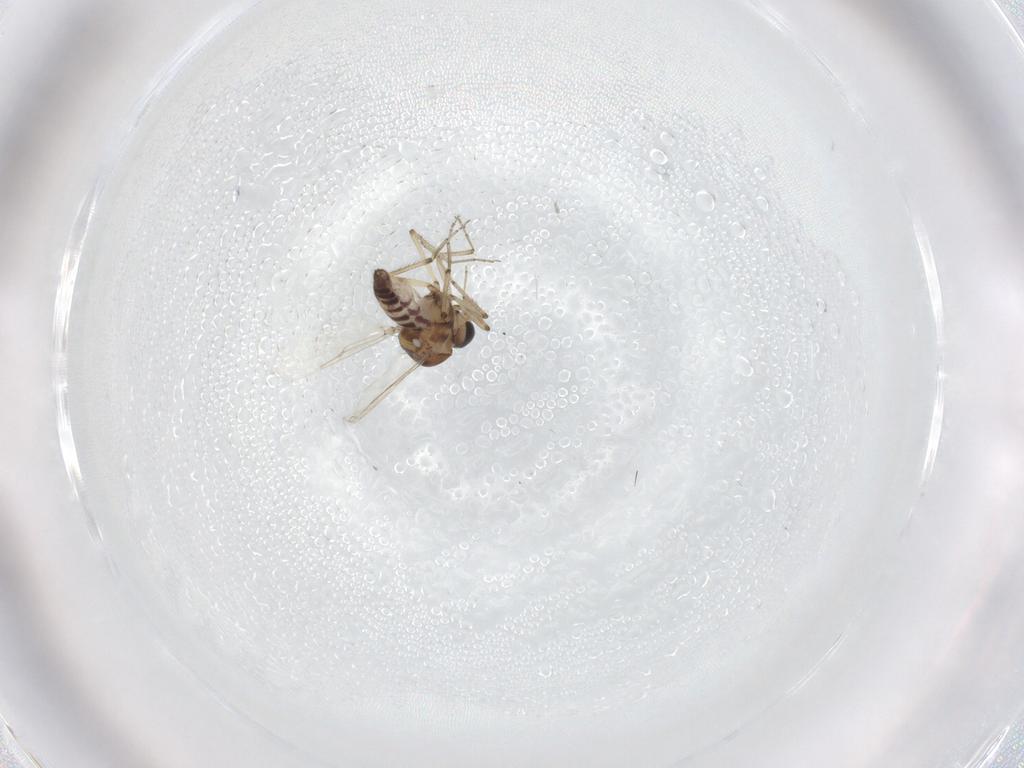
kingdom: Animalia
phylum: Arthropoda
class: Insecta
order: Diptera
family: Ceratopogonidae
